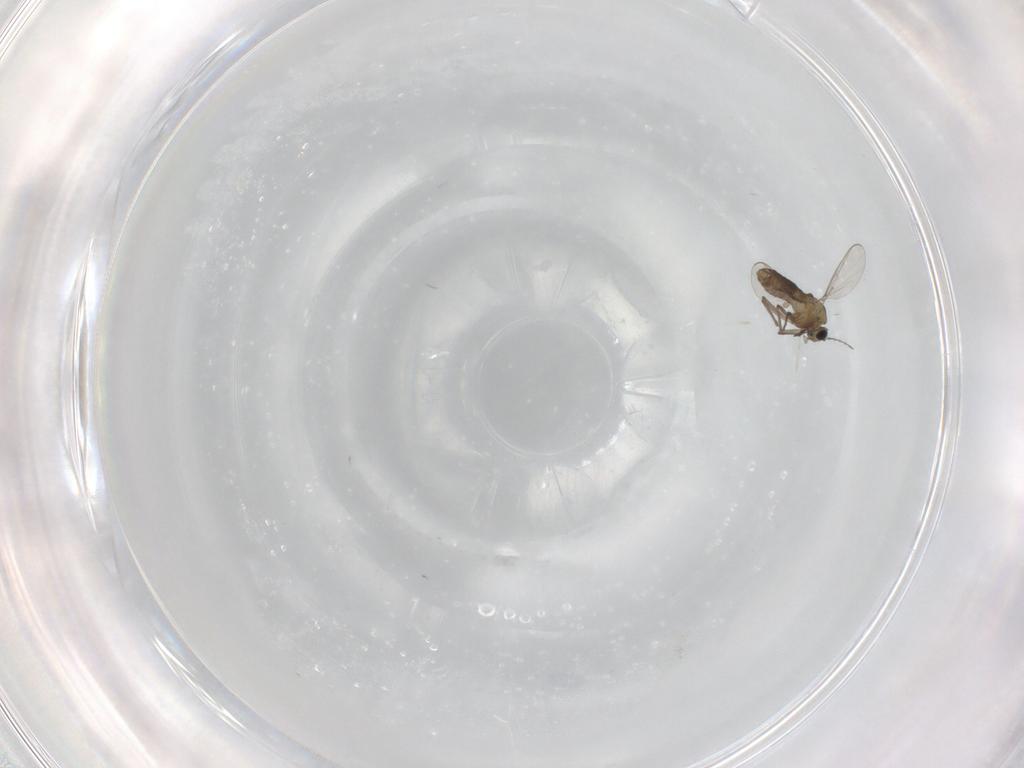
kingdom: Animalia
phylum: Arthropoda
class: Insecta
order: Diptera
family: Chironomidae
